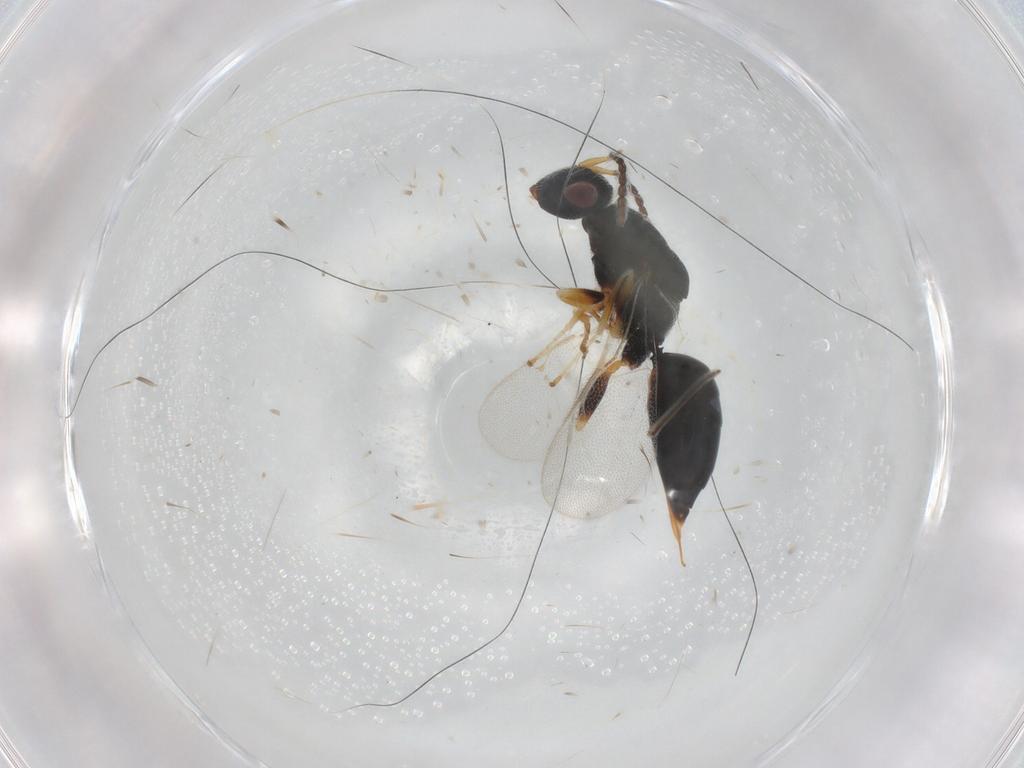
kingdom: Animalia
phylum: Arthropoda
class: Insecta
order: Hymenoptera
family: Eurytomidae
